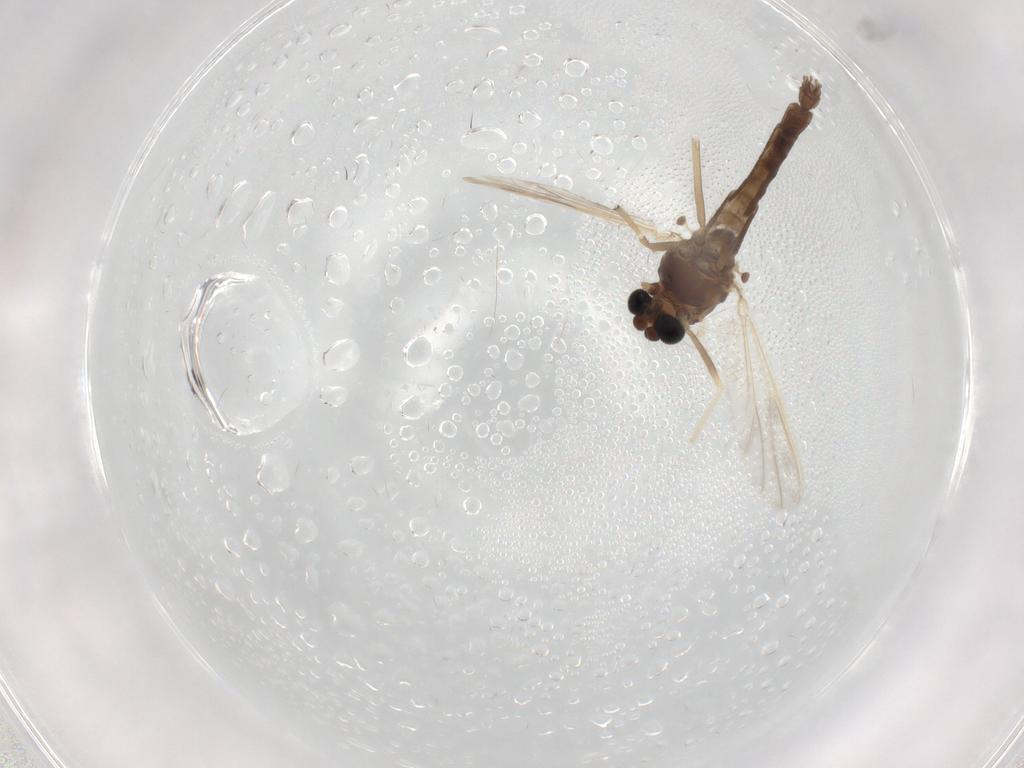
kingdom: Animalia
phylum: Arthropoda
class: Insecta
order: Diptera
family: Chironomidae
